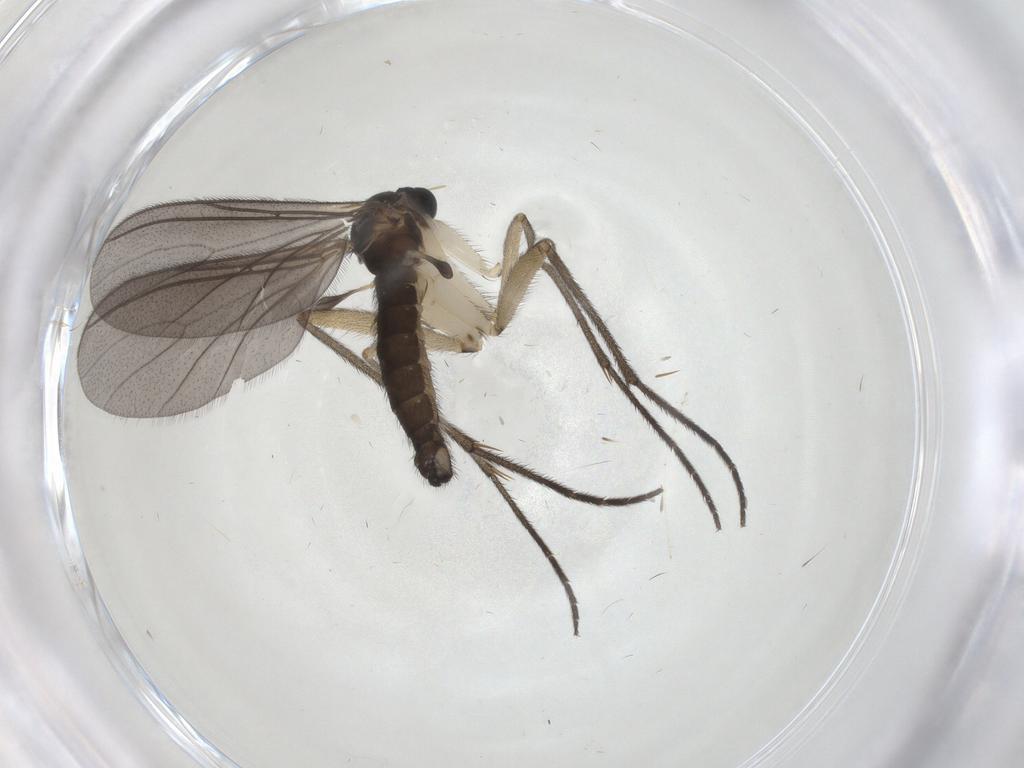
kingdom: Animalia
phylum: Arthropoda
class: Insecta
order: Diptera
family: Sciaridae
